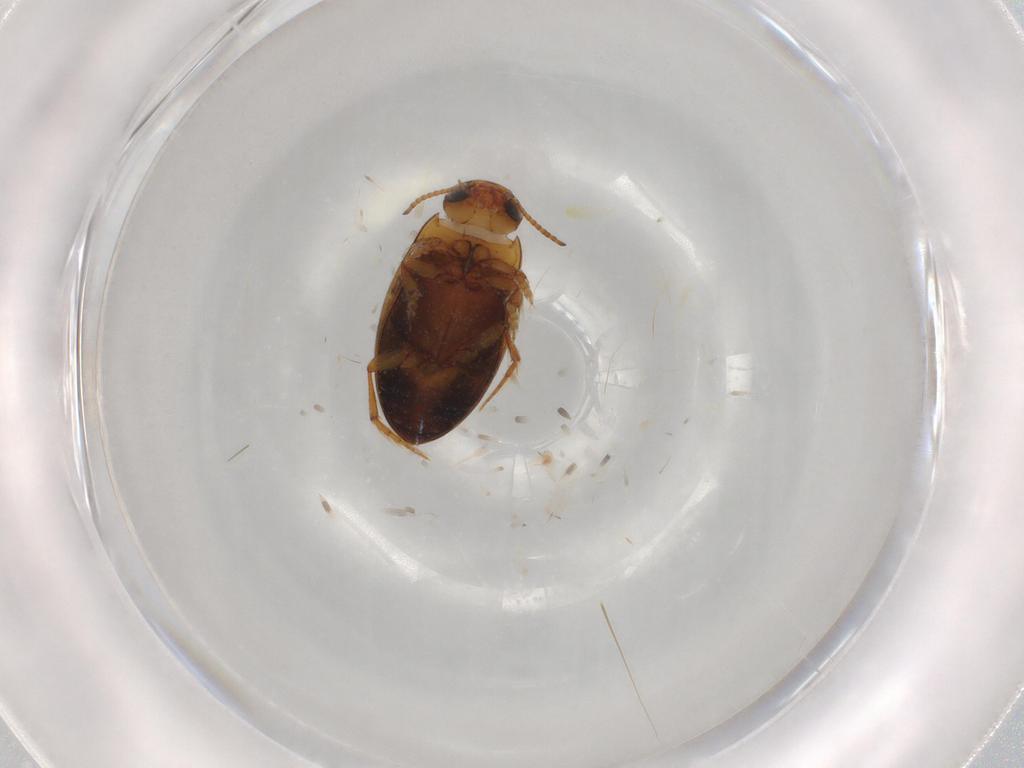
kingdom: Animalia
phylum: Arthropoda
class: Insecta
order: Coleoptera
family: Dytiscidae
